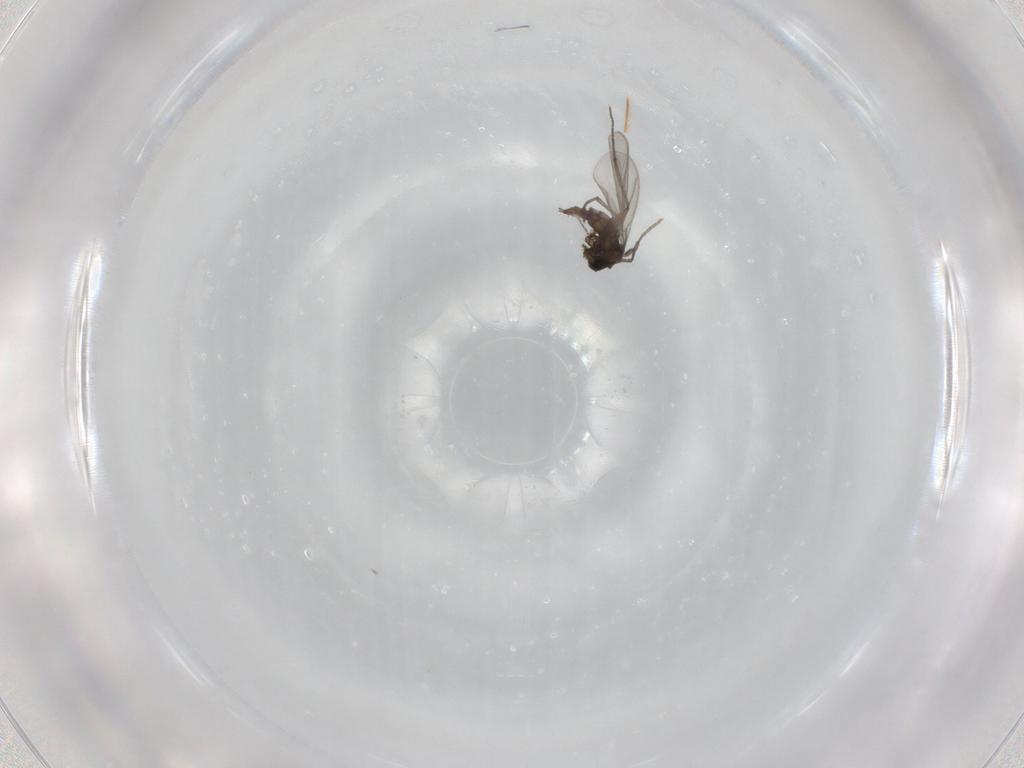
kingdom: Animalia
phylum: Arthropoda
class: Insecta
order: Diptera
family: Sciaridae
